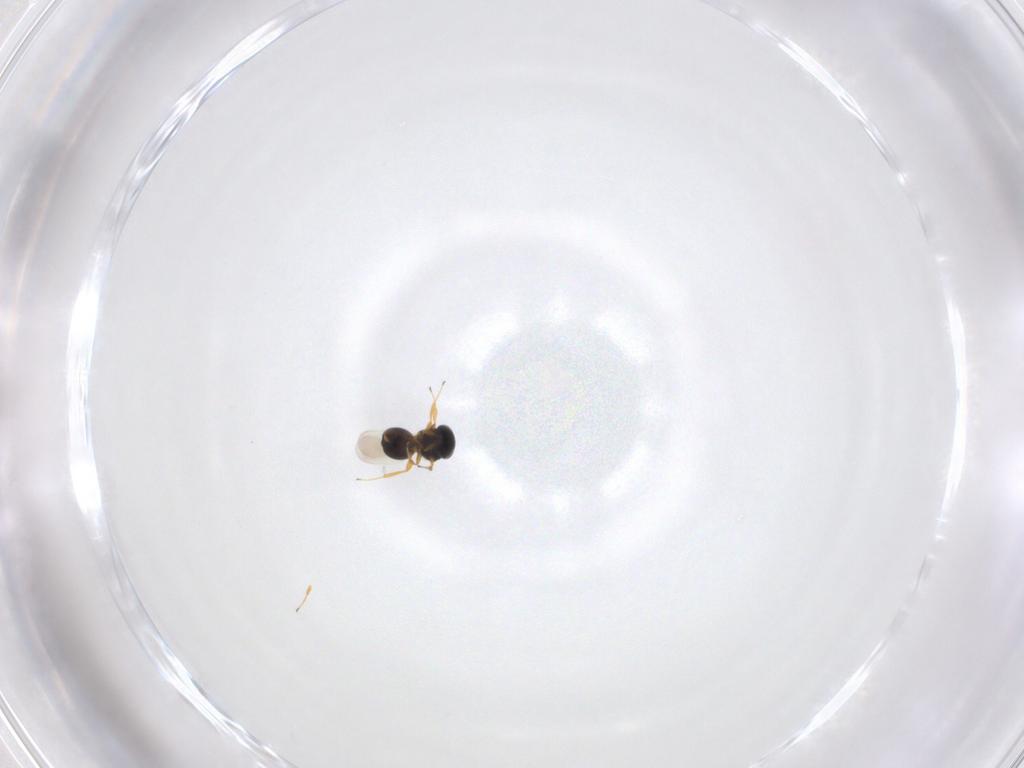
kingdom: Animalia
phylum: Arthropoda
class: Insecta
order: Hymenoptera
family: Platygastridae
